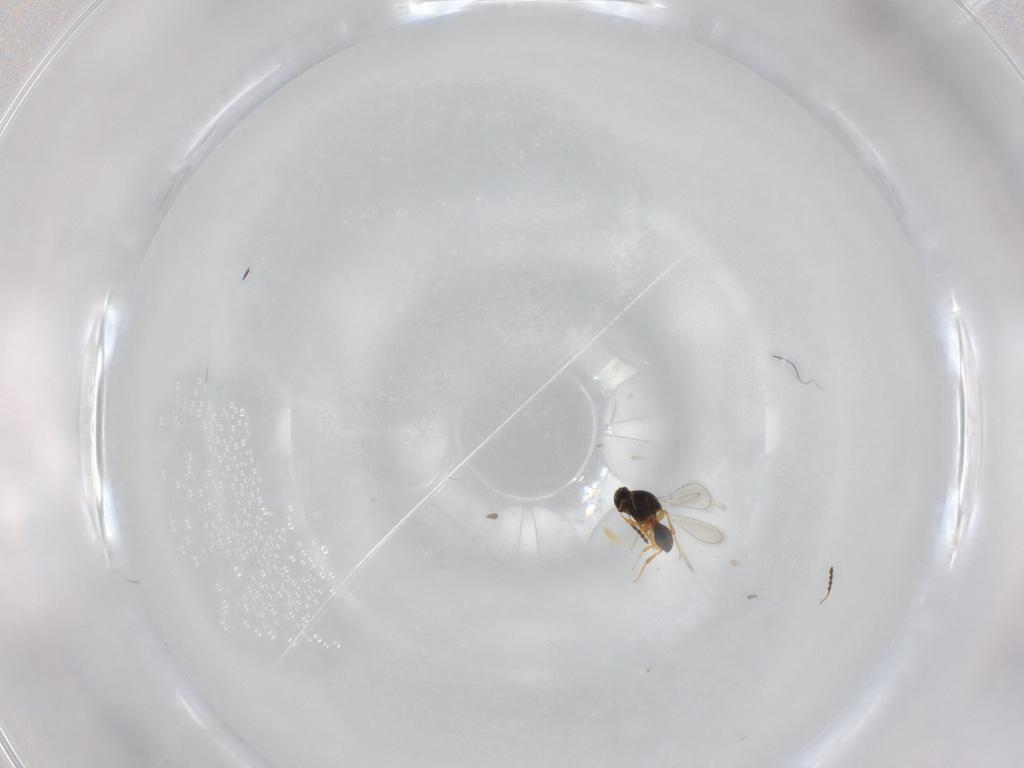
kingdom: Animalia
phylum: Arthropoda
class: Insecta
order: Hymenoptera
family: Platygastridae
